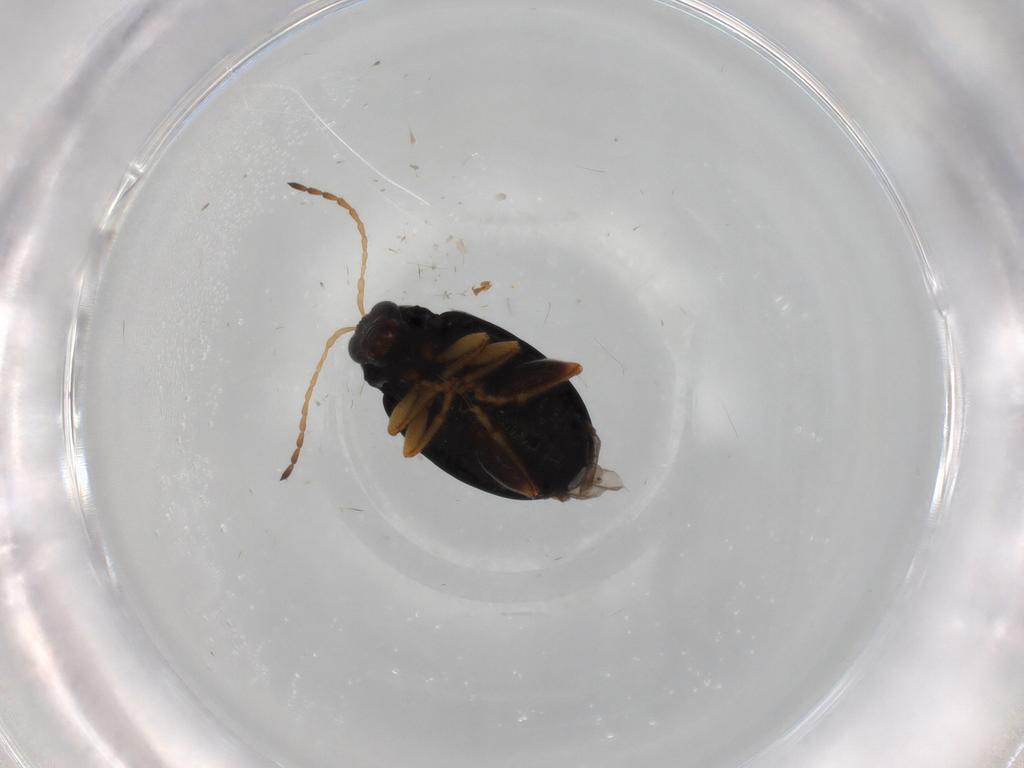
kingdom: Animalia
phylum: Arthropoda
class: Insecta
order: Coleoptera
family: Chrysomelidae
